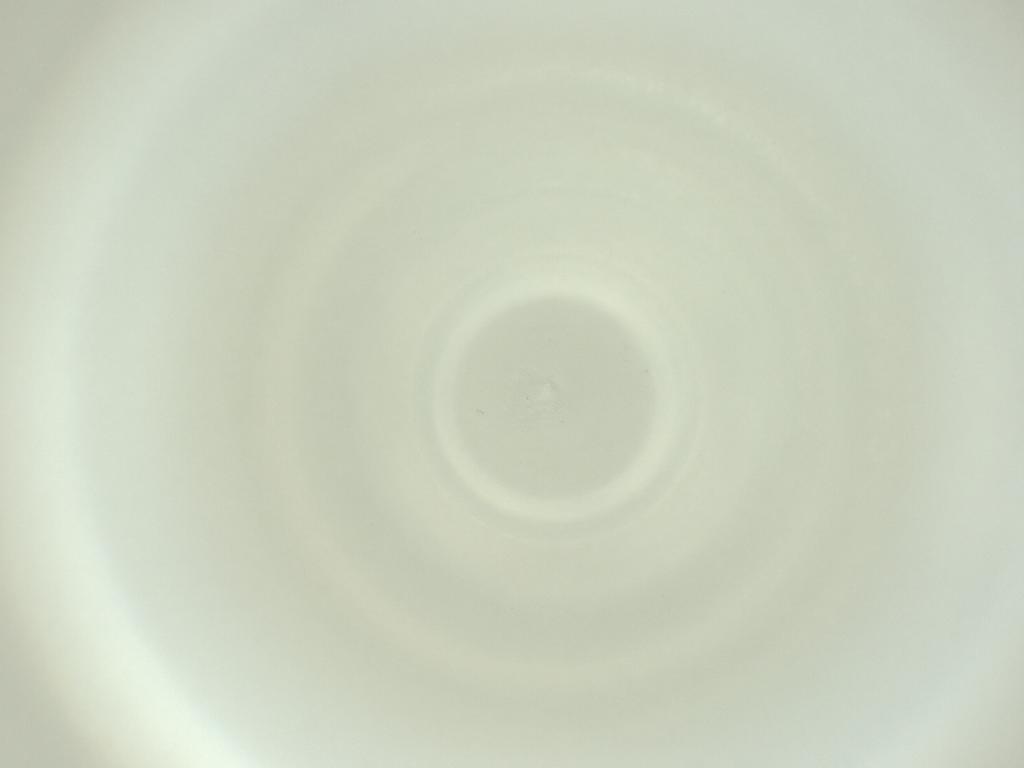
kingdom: Animalia
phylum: Arthropoda
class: Insecta
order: Diptera
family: Cecidomyiidae
